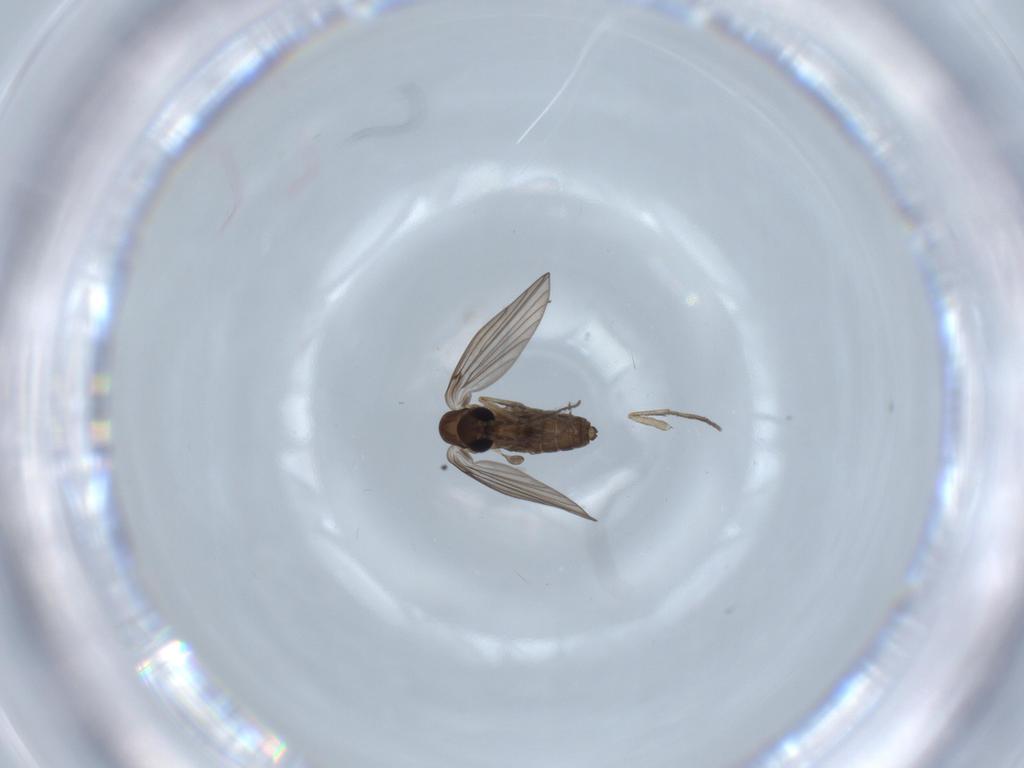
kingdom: Animalia
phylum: Arthropoda
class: Insecta
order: Diptera
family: Psychodidae
